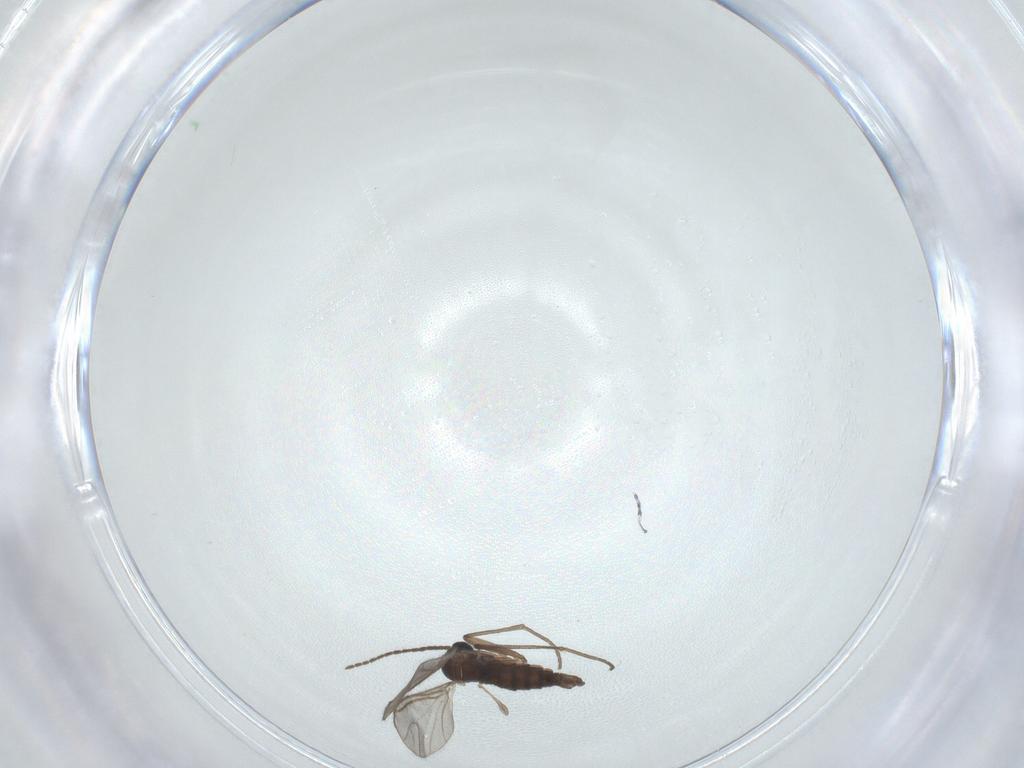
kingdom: Animalia
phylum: Arthropoda
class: Insecta
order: Diptera
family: Sciaridae
